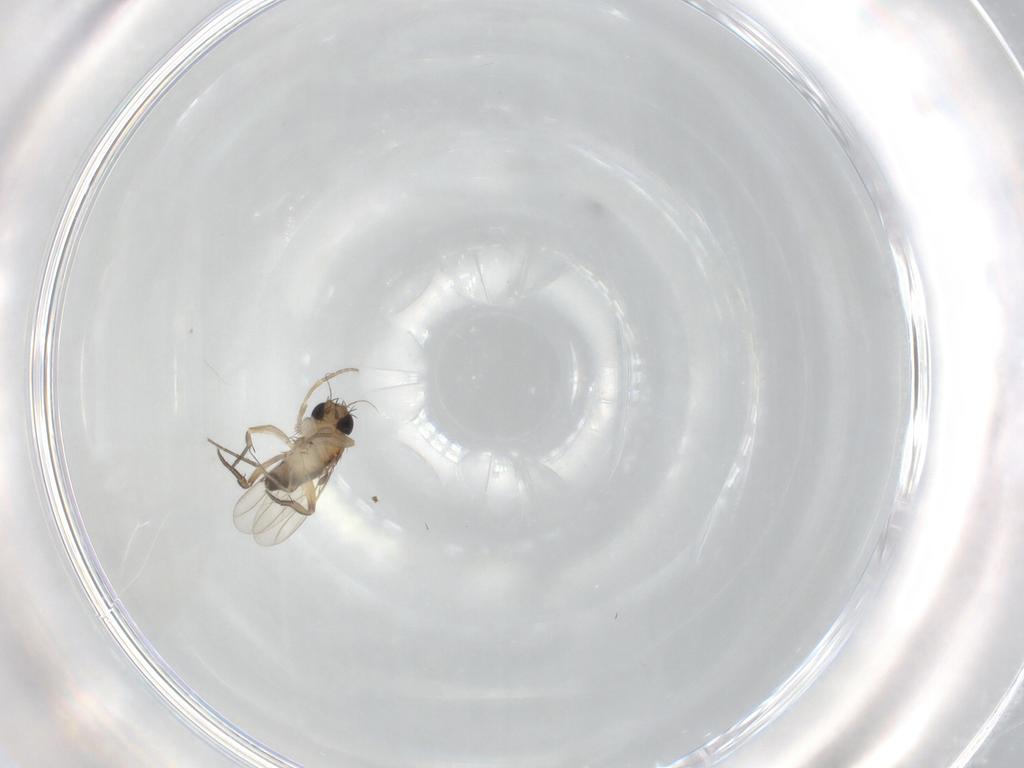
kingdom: Animalia
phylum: Arthropoda
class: Insecta
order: Diptera
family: Phoridae
